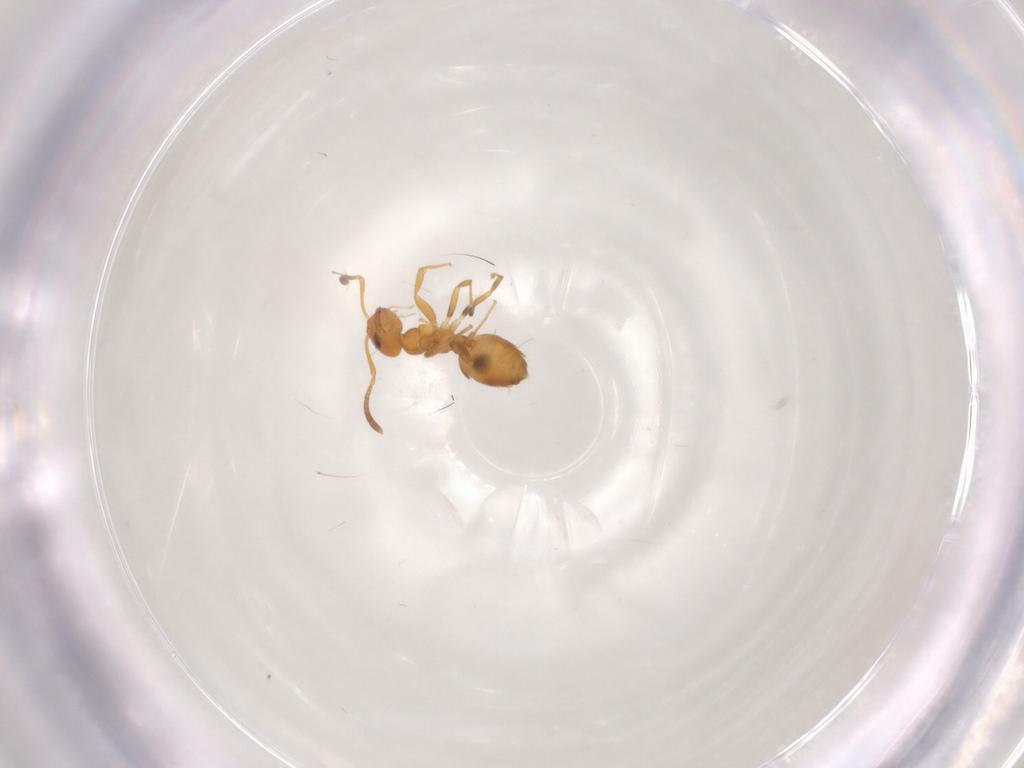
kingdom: Animalia
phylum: Arthropoda
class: Insecta
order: Hymenoptera
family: Formicidae
